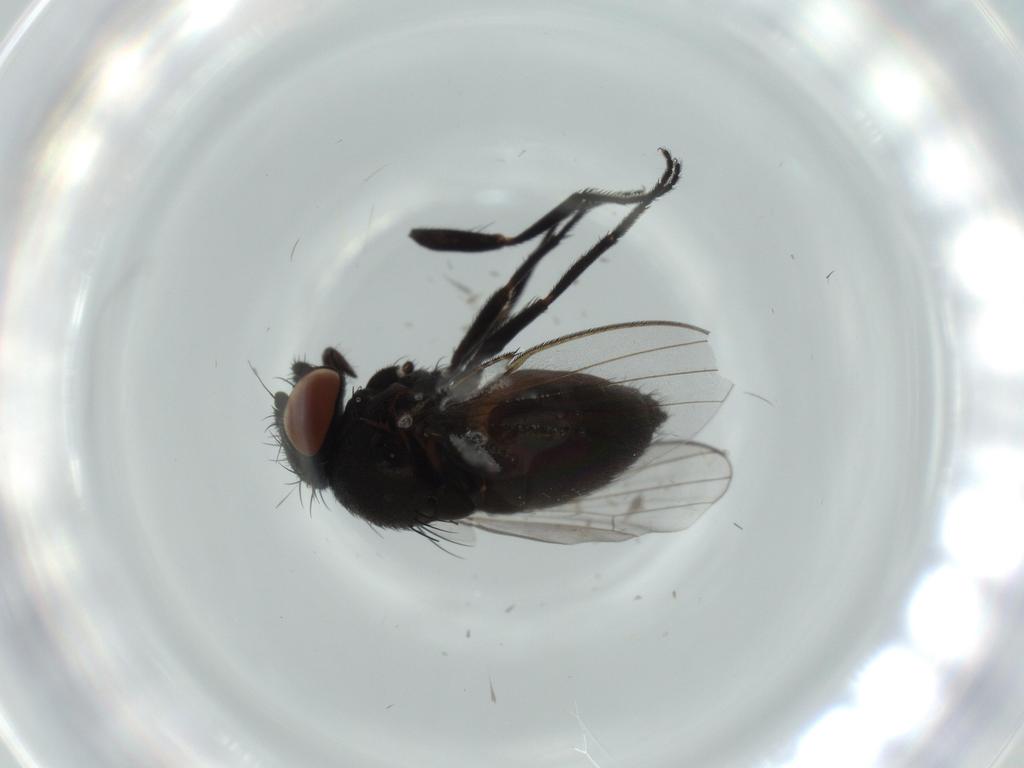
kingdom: Animalia
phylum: Arthropoda
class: Insecta
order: Diptera
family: Milichiidae
